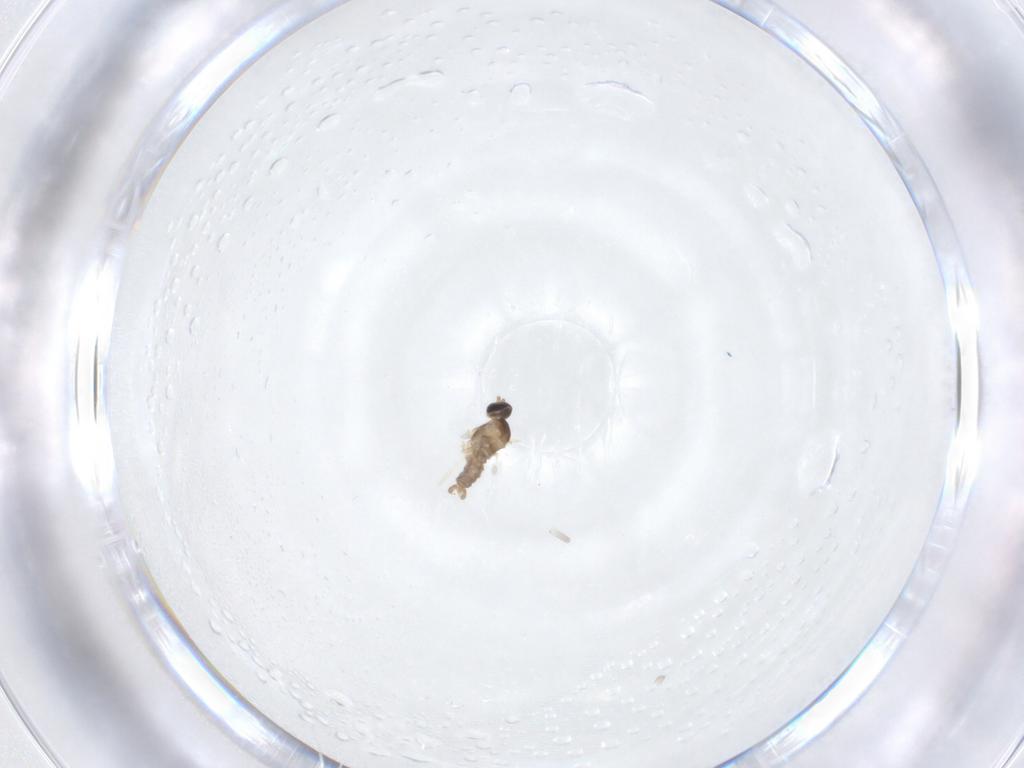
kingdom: Animalia
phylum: Arthropoda
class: Insecta
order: Diptera
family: Cecidomyiidae
